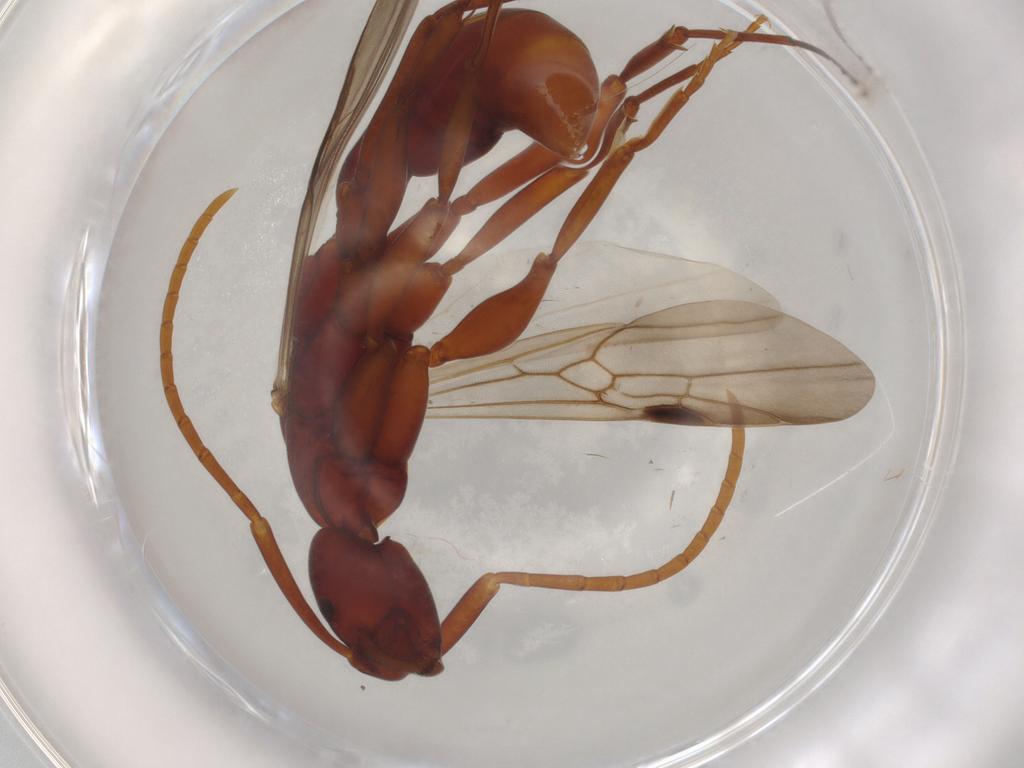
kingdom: Animalia
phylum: Arthropoda
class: Insecta
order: Hymenoptera
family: Formicidae
